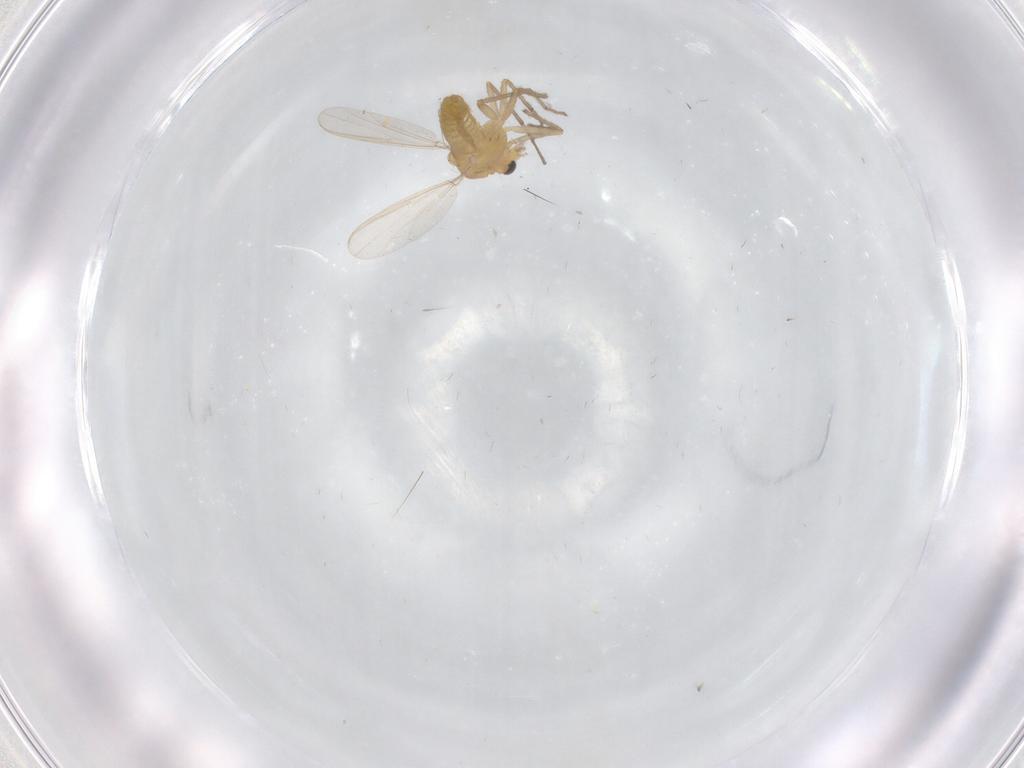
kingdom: Animalia
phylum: Arthropoda
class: Insecta
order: Diptera
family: Chironomidae
